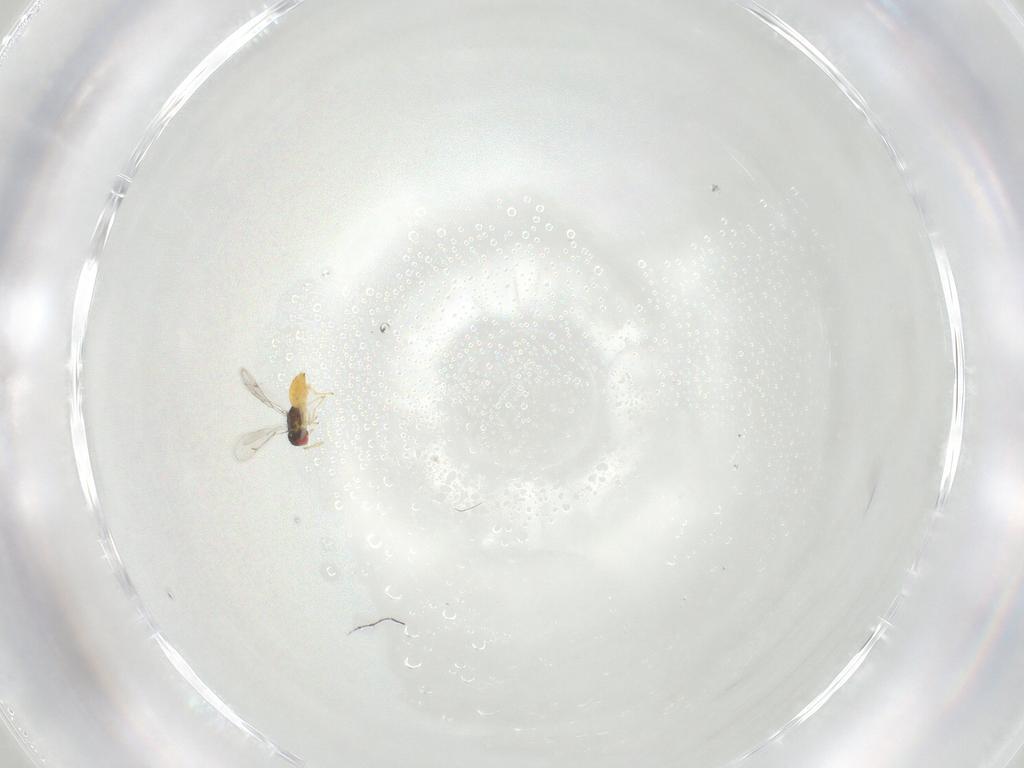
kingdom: Animalia
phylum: Arthropoda
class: Insecta
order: Hymenoptera
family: Eulophidae
